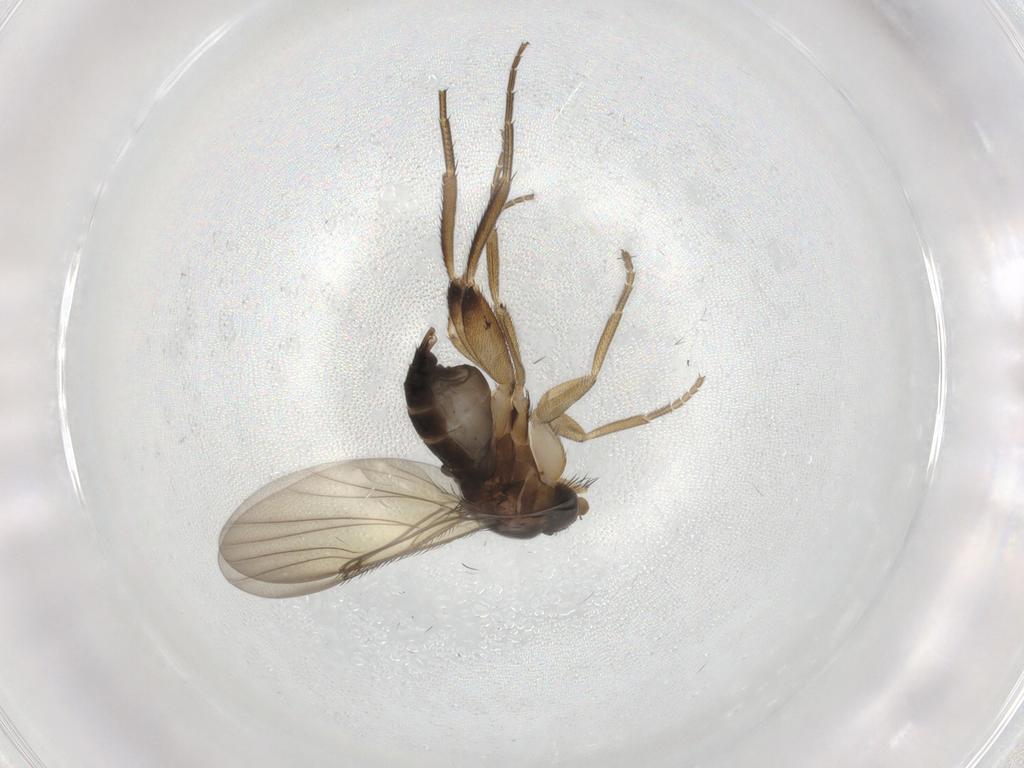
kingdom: Animalia
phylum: Arthropoda
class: Insecta
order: Diptera
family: Phoridae
